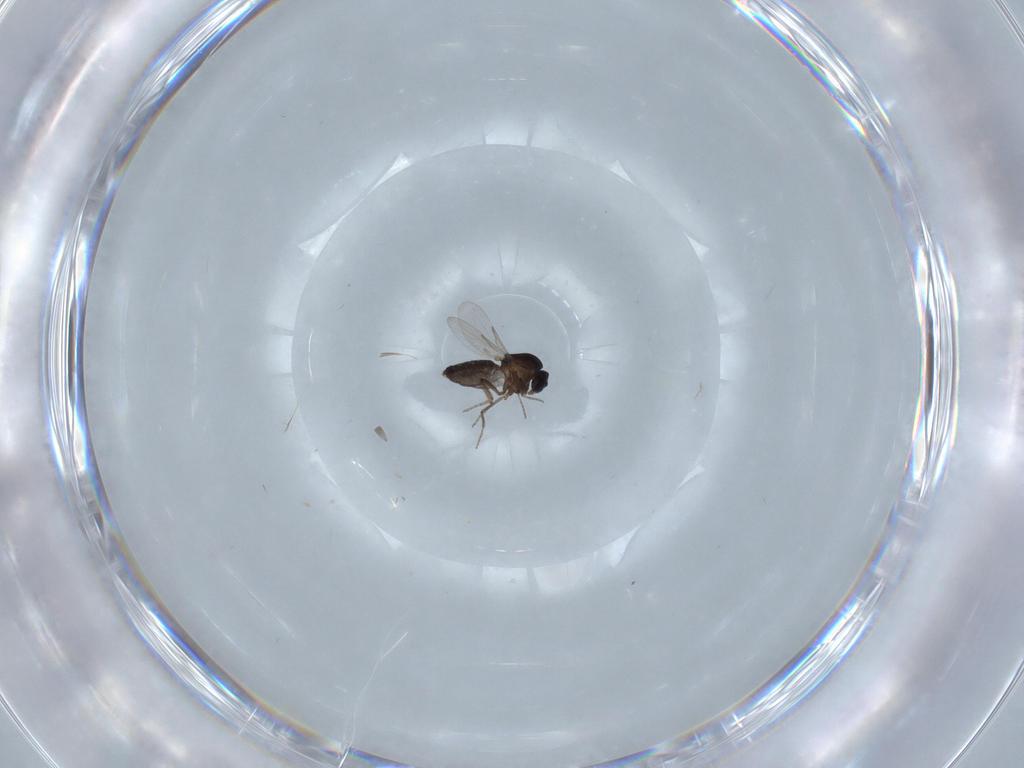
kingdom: Animalia
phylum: Arthropoda
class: Insecta
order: Diptera
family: Ceratopogonidae
